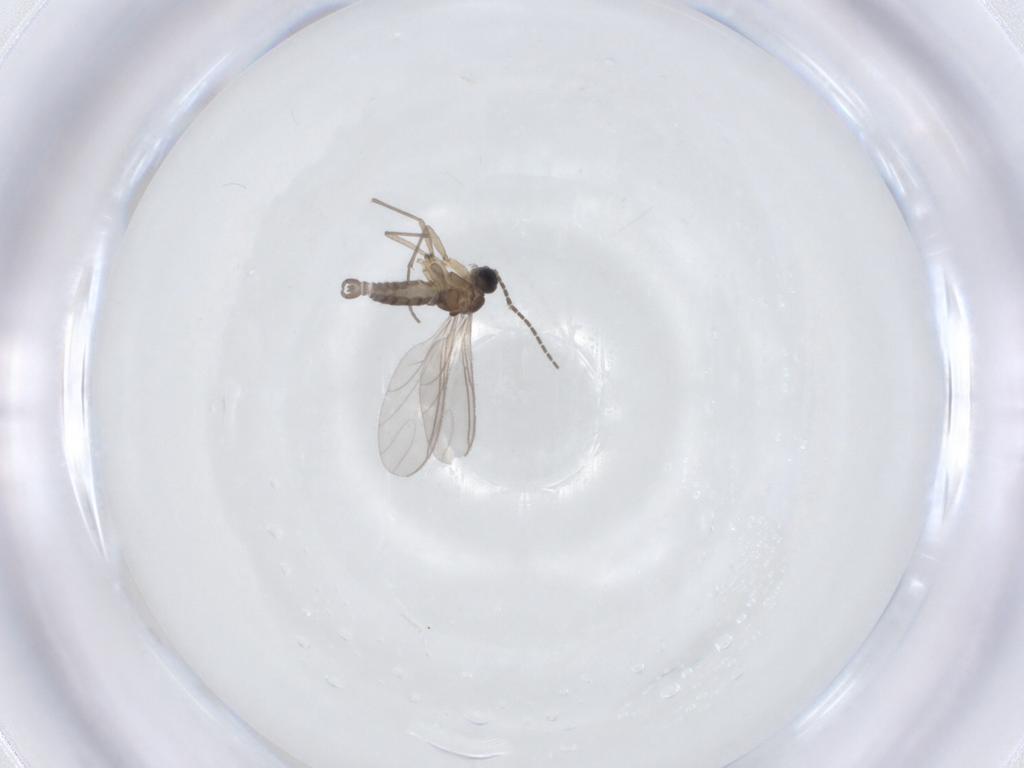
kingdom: Animalia
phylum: Arthropoda
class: Insecta
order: Diptera
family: Sciaridae
